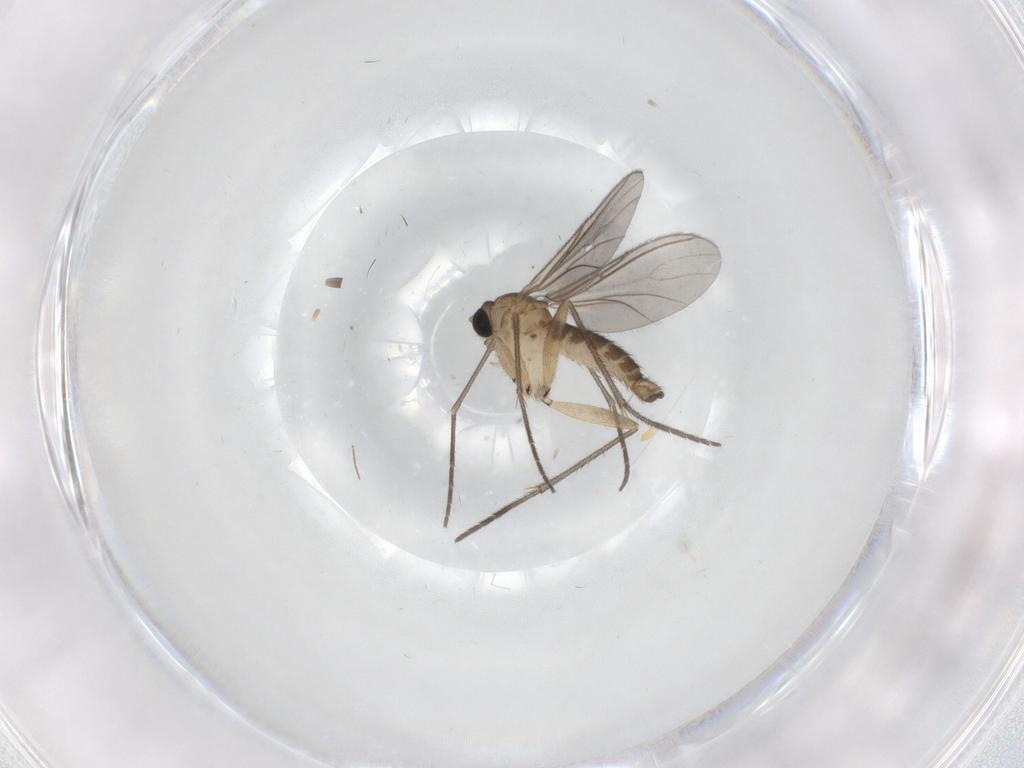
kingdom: Animalia
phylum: Arthropoda
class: Insecta
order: Diptera
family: Sciaridae
